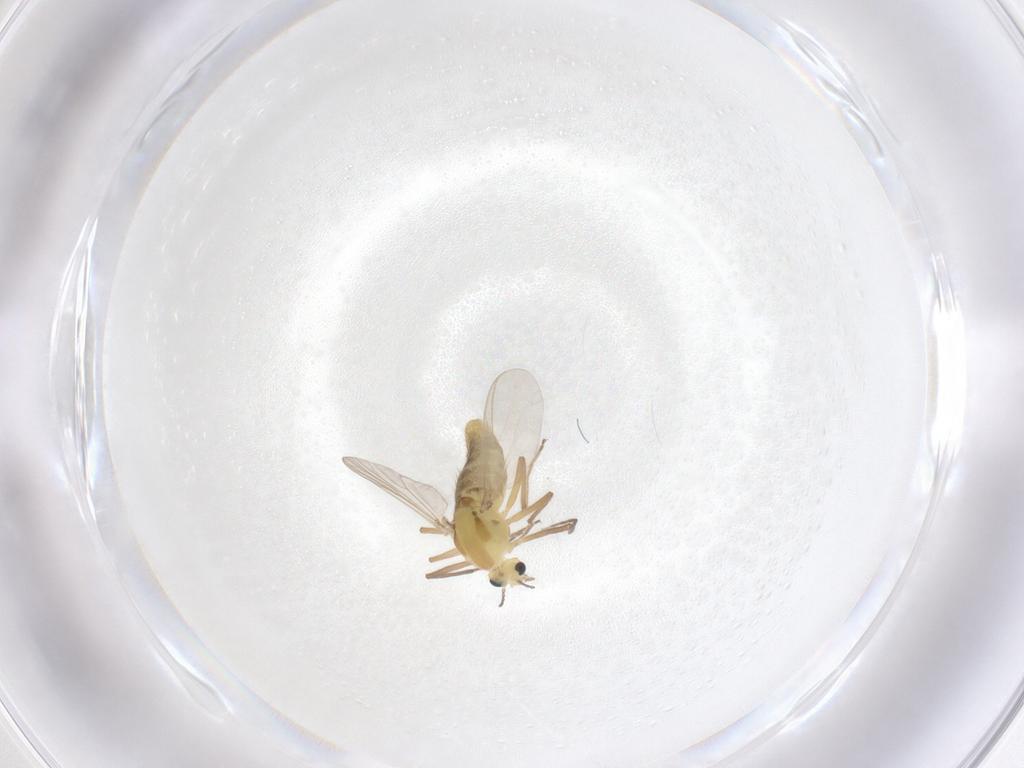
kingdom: Animalia
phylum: Arthropoda
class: Insecta
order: Diptera
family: Chironomidae
